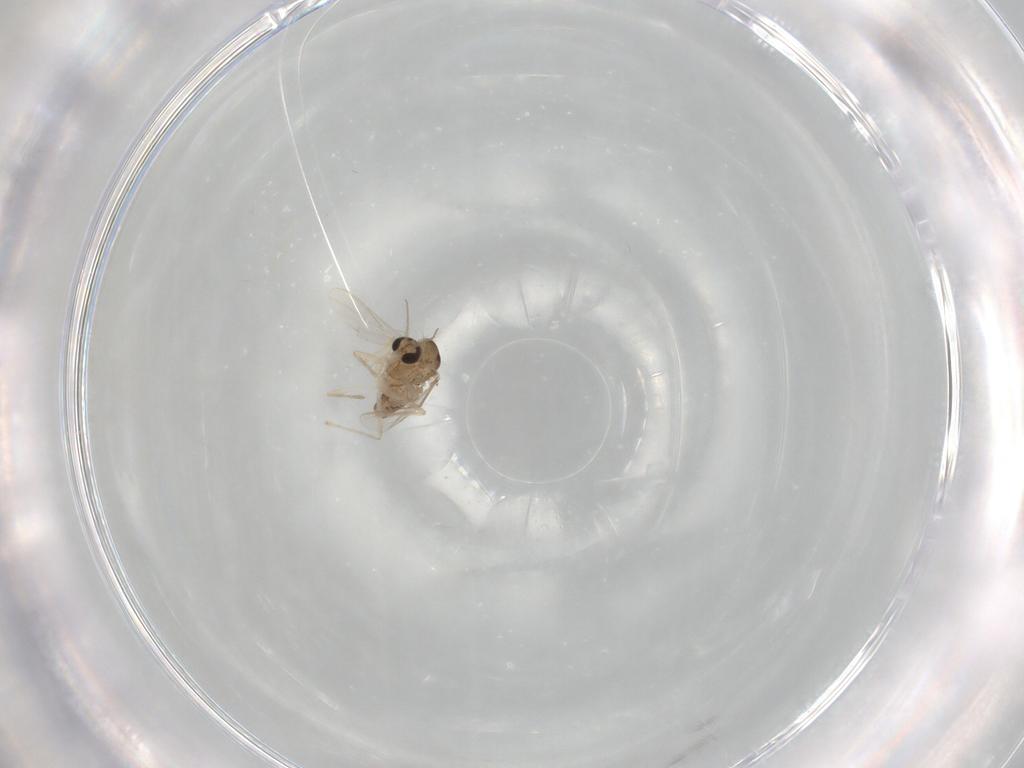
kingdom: Animalia
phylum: Arthropoda
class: Insecta
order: Diptera
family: Chironomidae
